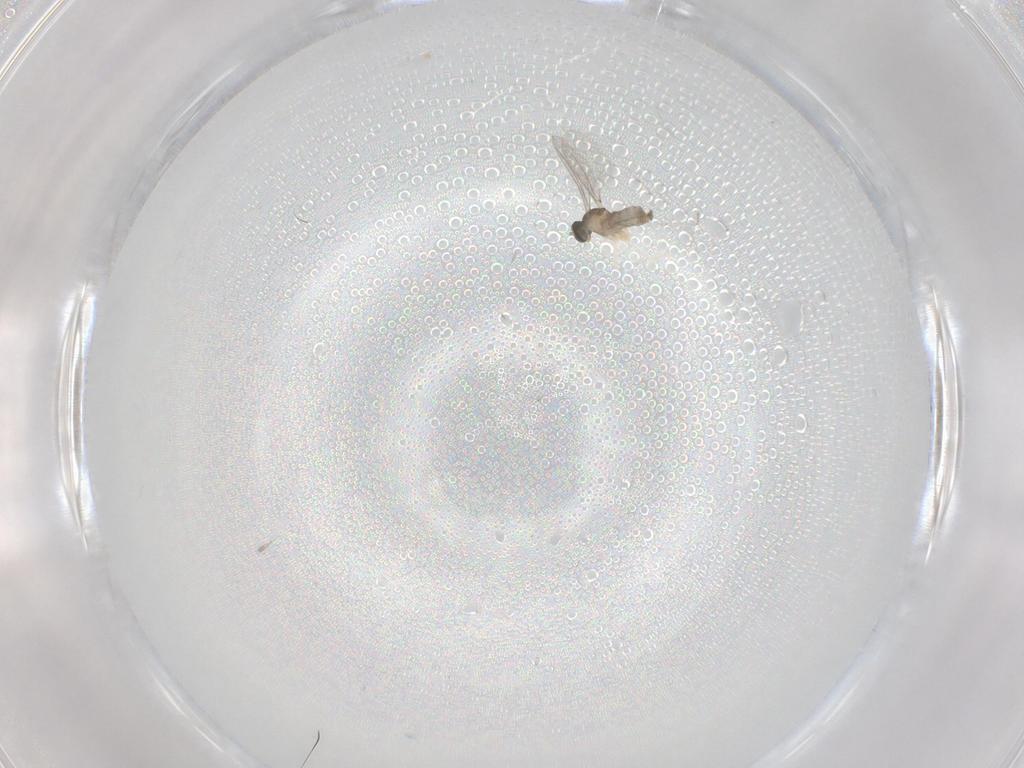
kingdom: Animalia
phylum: Arthropoda
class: Insecta
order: Diptera
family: Cecidomyiidae
